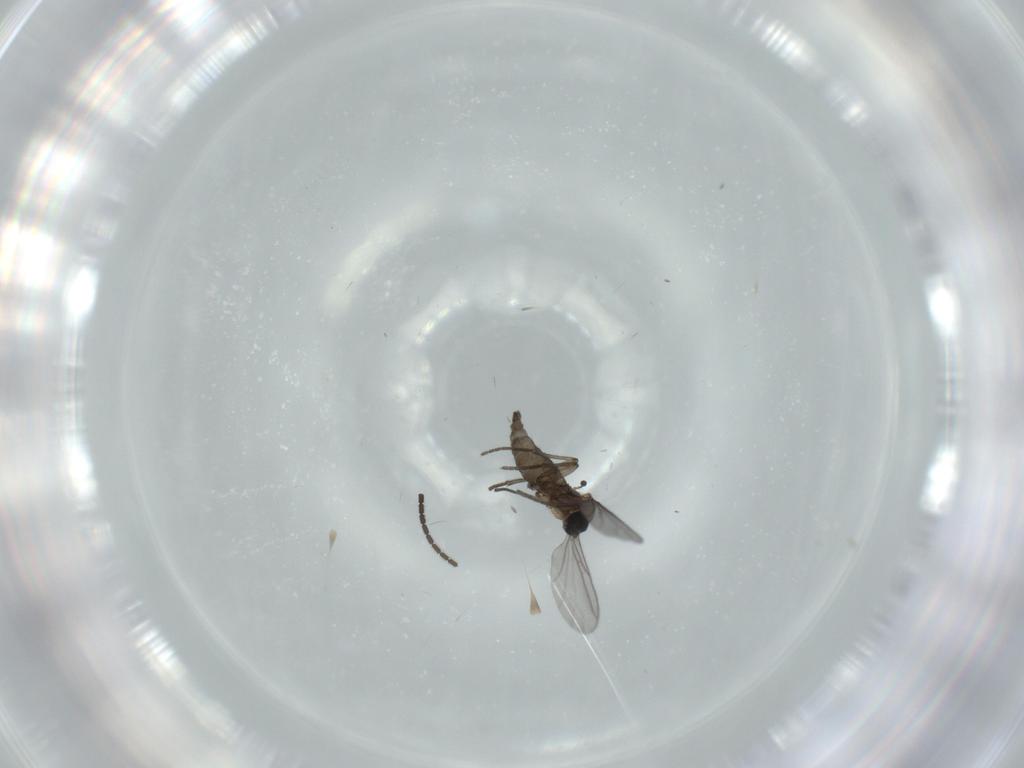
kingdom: Animalia
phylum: Arthropoda
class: Insecta
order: Diptera
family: Sciaridae
